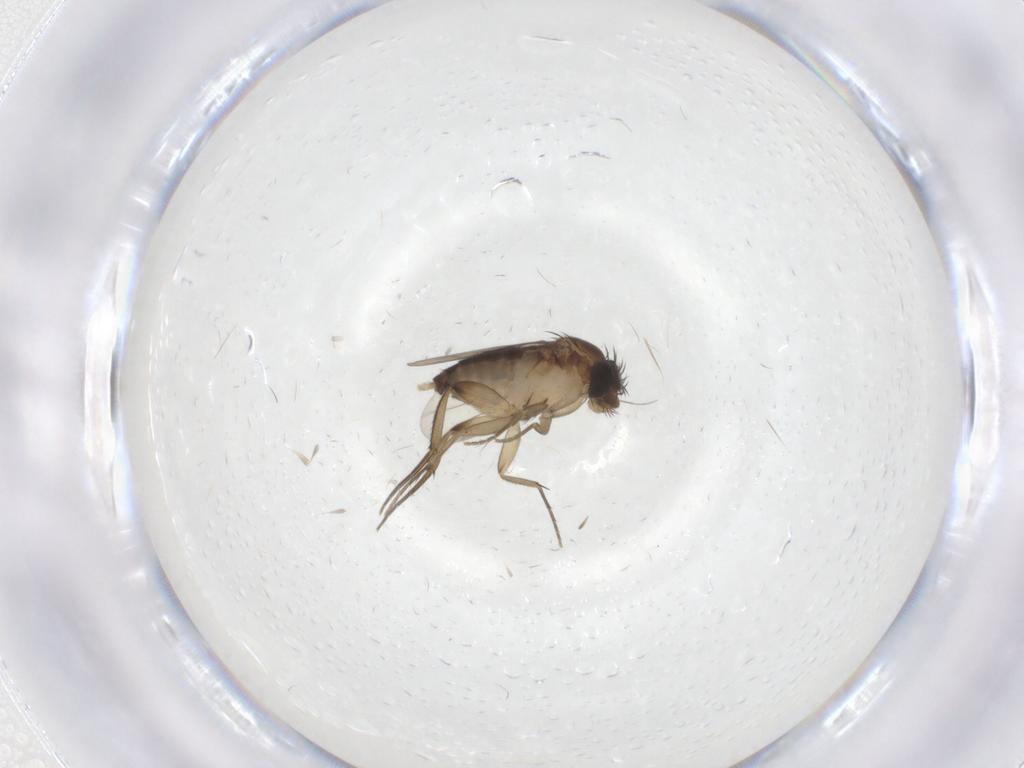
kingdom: Animalia
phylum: Arthropoda
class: Insecta
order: Diptera
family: Phoridae
